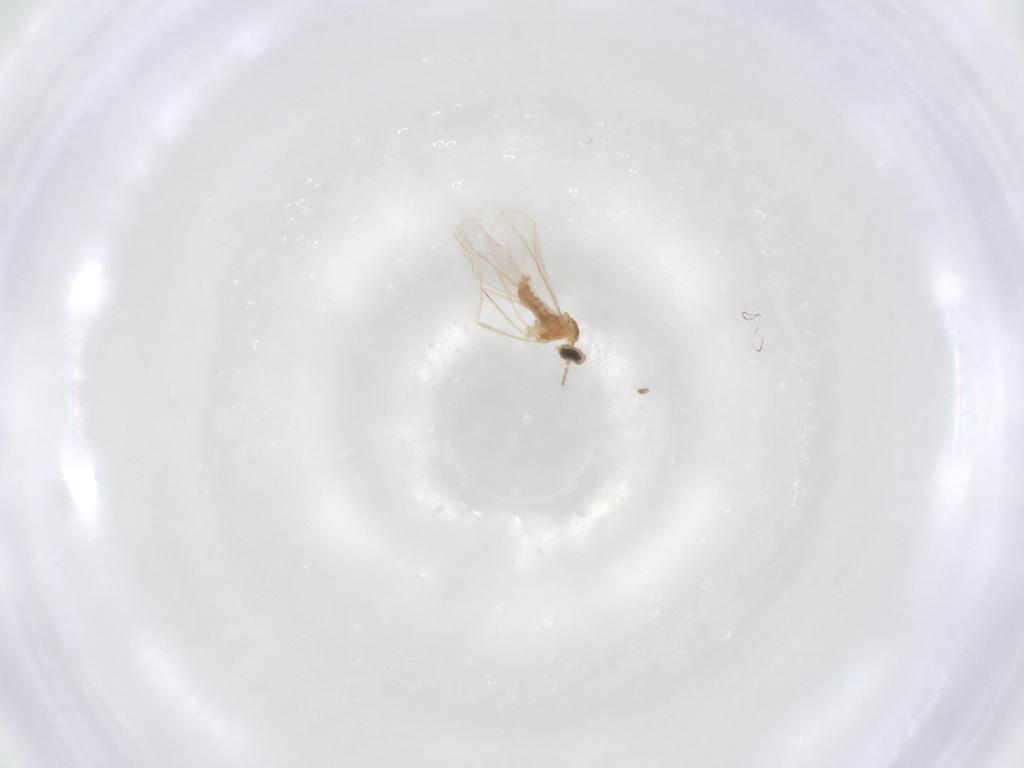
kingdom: Animalia
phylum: Arthropoda
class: Insecta
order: Diptera
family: Cecidomyiidae
